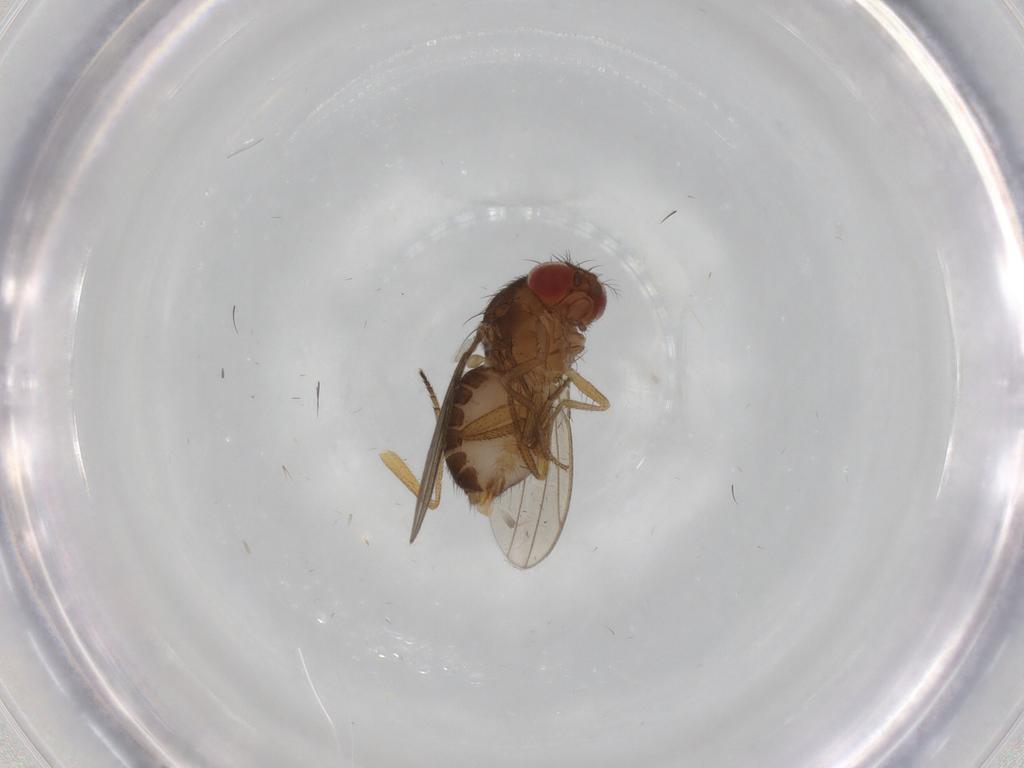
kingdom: Animalia
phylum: Arthropoda
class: Insecta
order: Diptera
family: Drosophilidae
